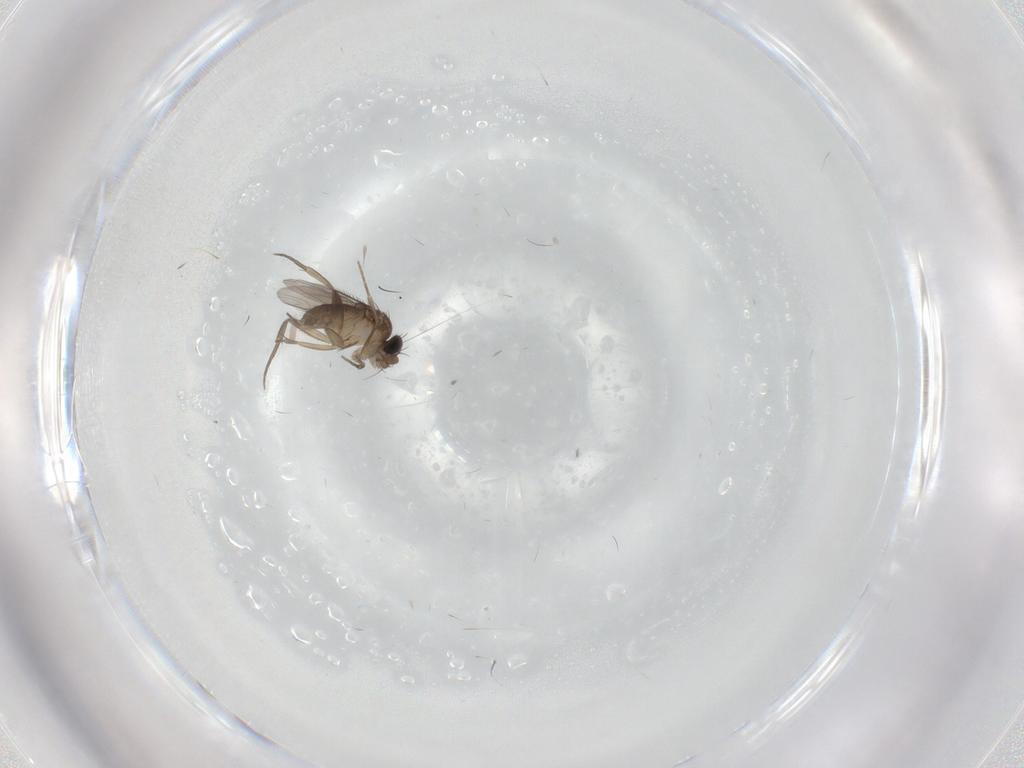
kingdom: Animalia
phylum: Arthropoda
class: Insecta
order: Diptera
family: Phoridae
